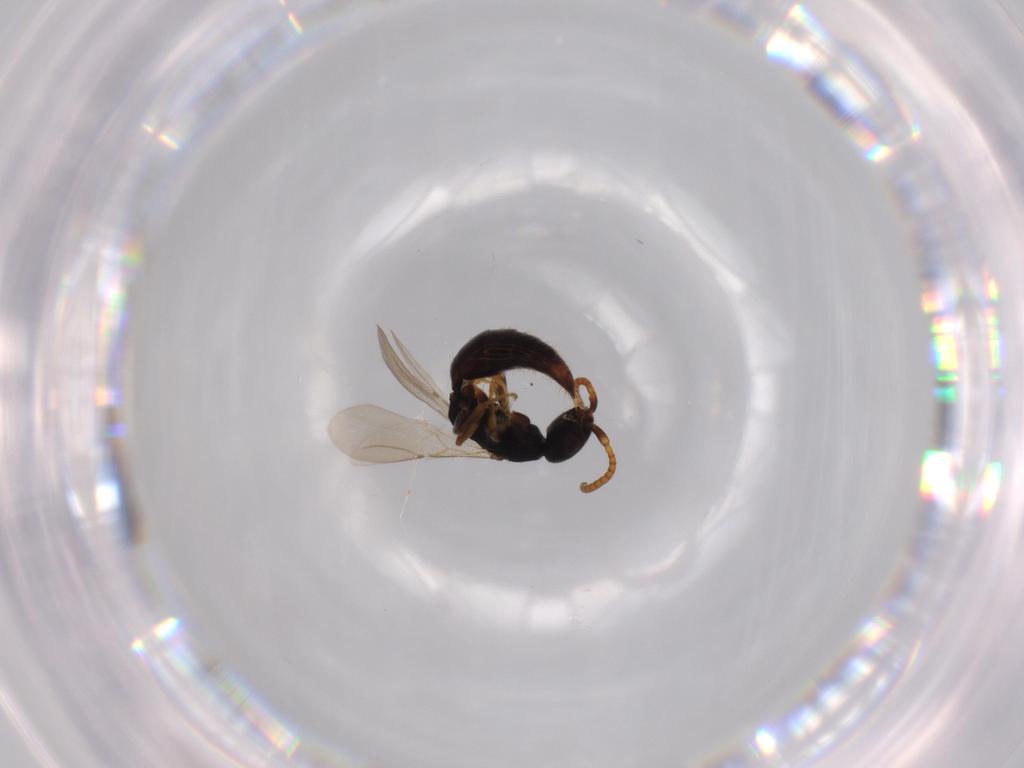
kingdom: Animalia
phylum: Arthropoda
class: Insecta
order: Hymenoptera
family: Bethylidae
